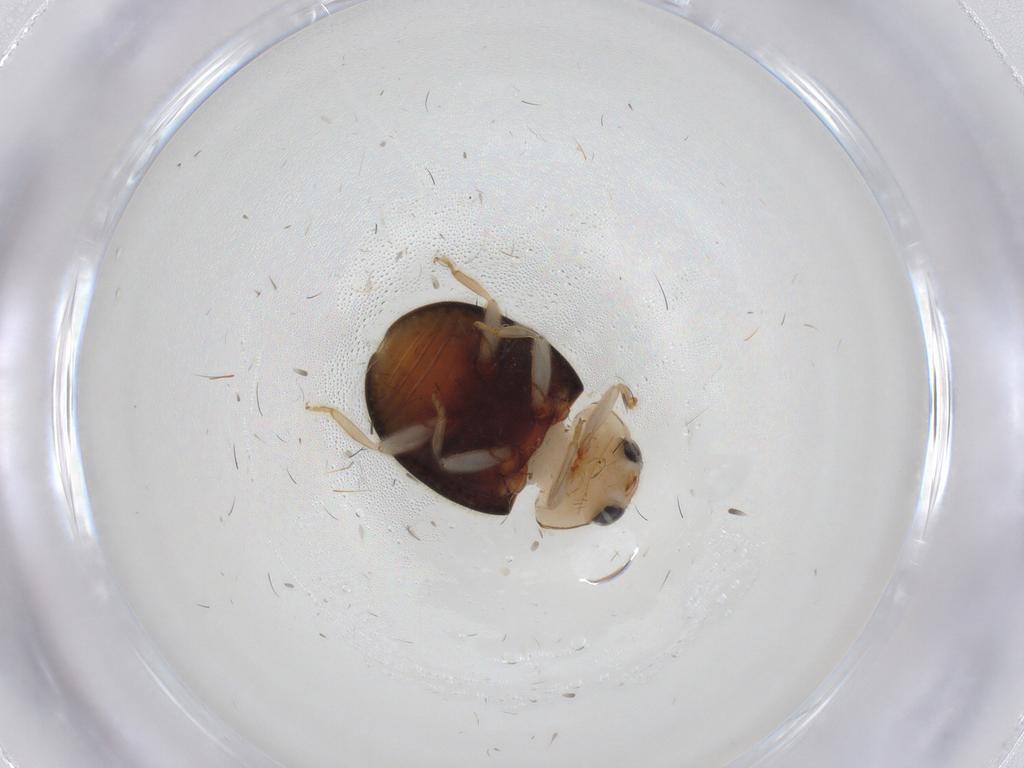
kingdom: Animalia
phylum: Arthropoda
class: Insecta
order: Coleoptera
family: Coccinellidae
